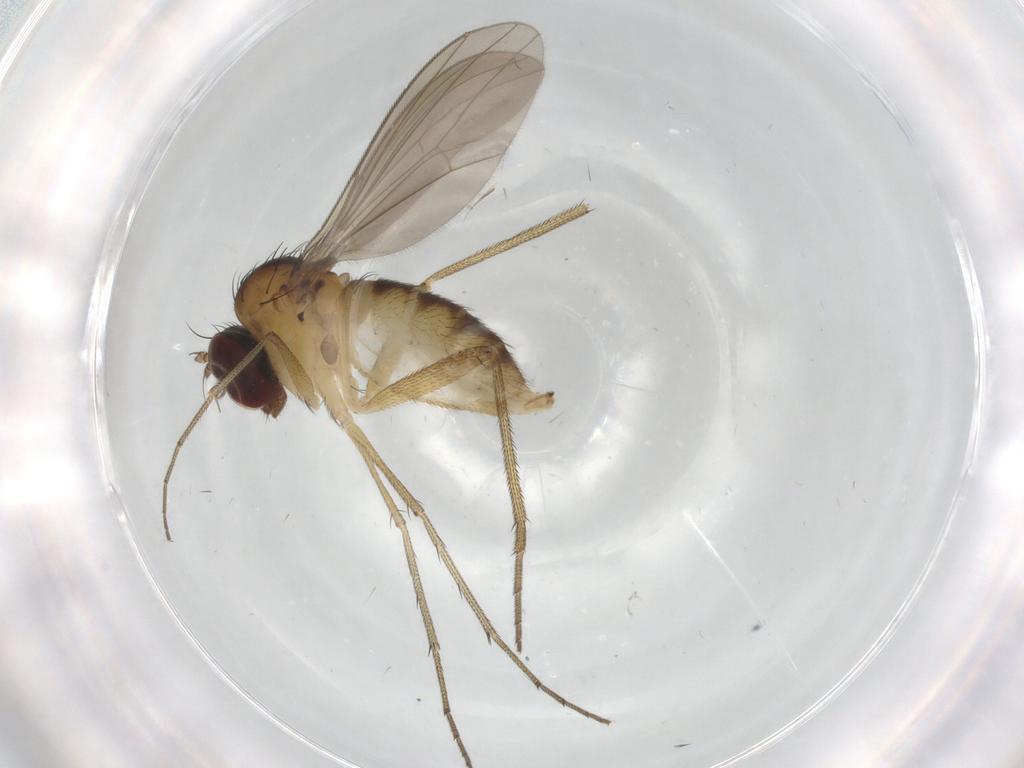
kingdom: Animalia
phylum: Arthropoda
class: Insecta
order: Diptera
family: Dolichopodidae
